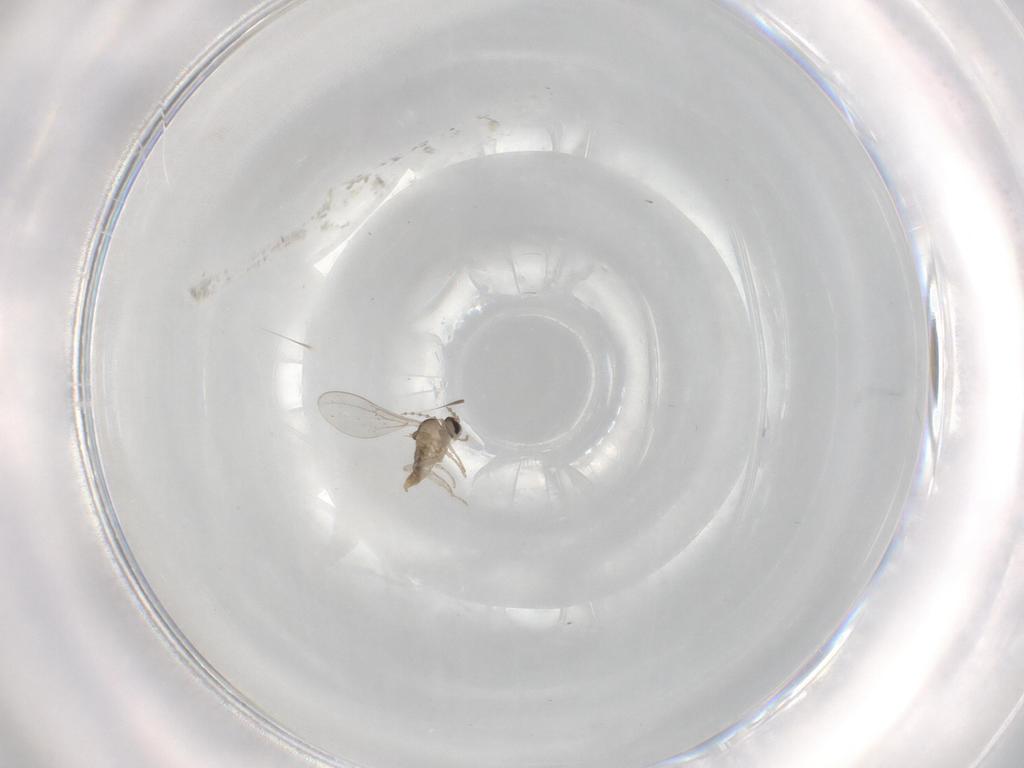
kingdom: Animalia
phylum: Arthropoda
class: Insecta
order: Diptera
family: Cecidomyiidae
